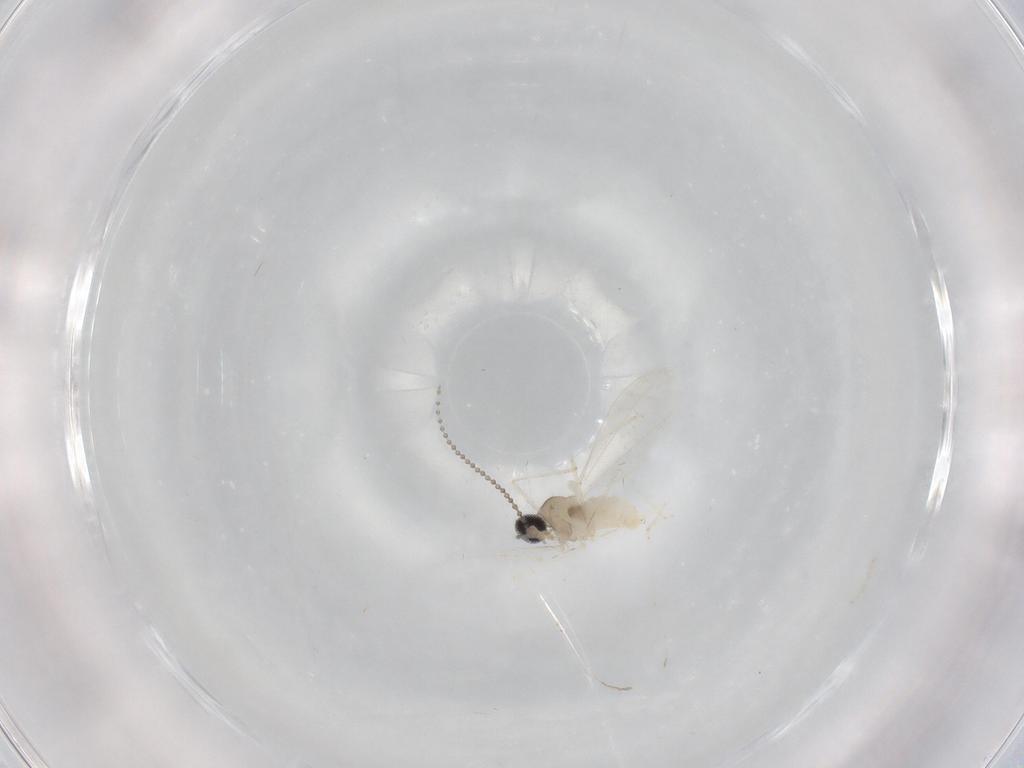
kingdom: Animalia
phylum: Arthropoda
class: Insecta
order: Diptera
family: Cecidomyiidae
